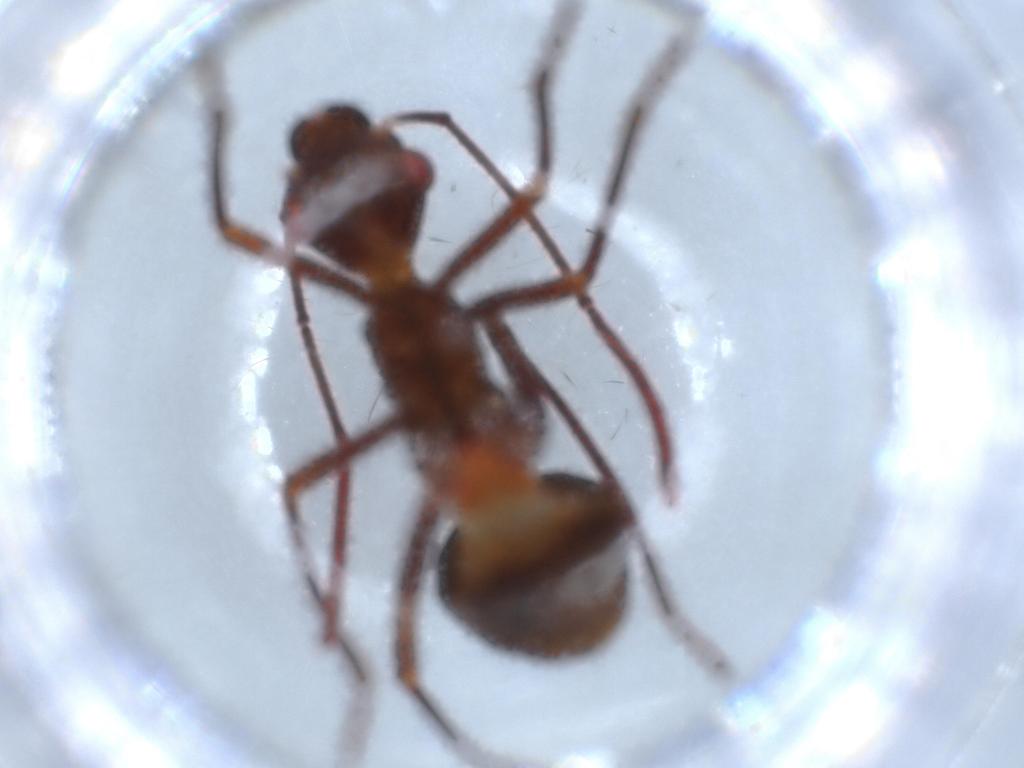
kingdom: Animalia
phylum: Arthropoda
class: Insecta
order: Hemiptera
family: Alydidae
